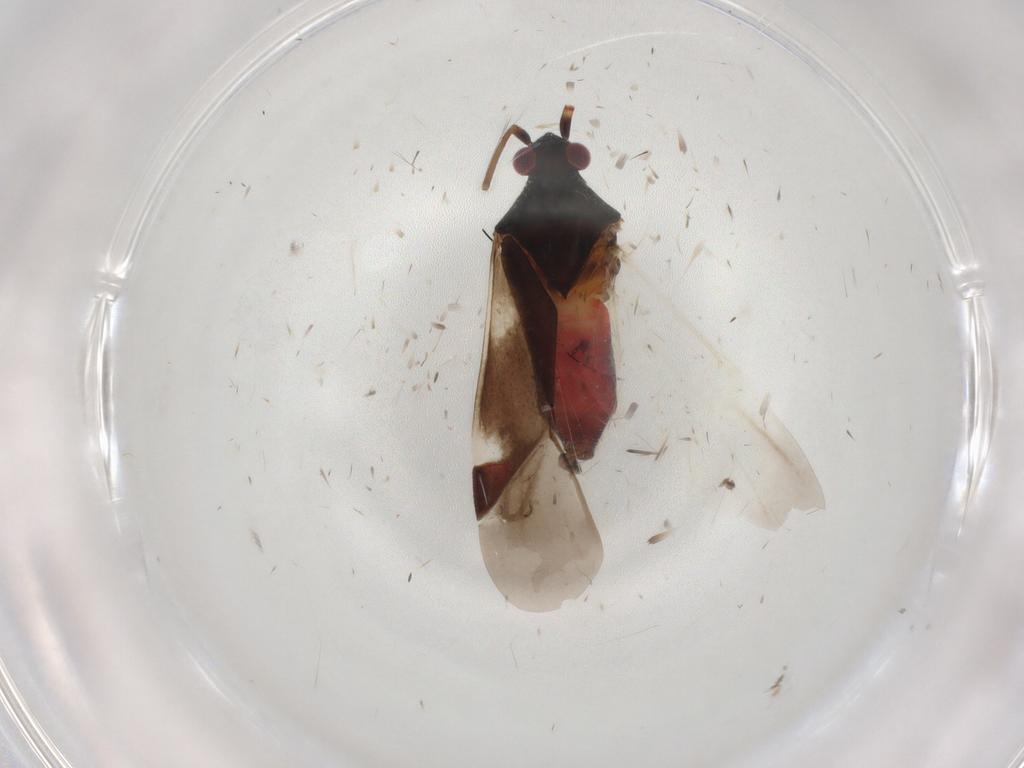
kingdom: Animalia
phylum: Arthropoda
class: Insecta
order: Hemiptera
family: Miridae
